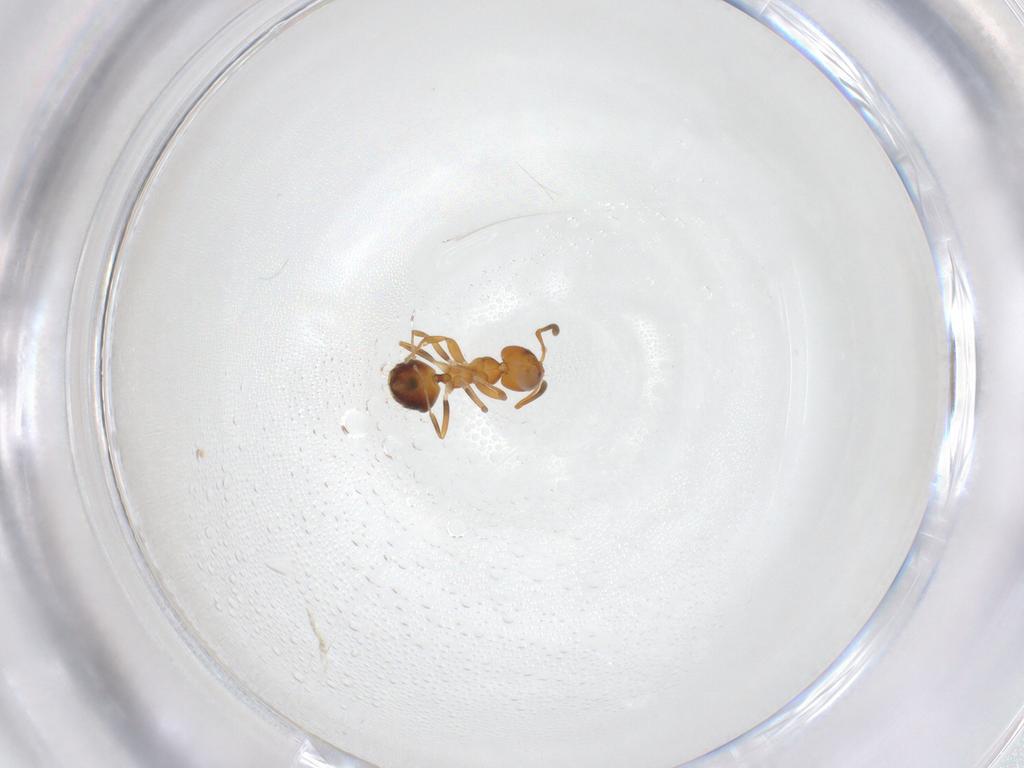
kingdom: Animalia
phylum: Arthropoda
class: Insecta
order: Hymenoptera
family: Formicidae
